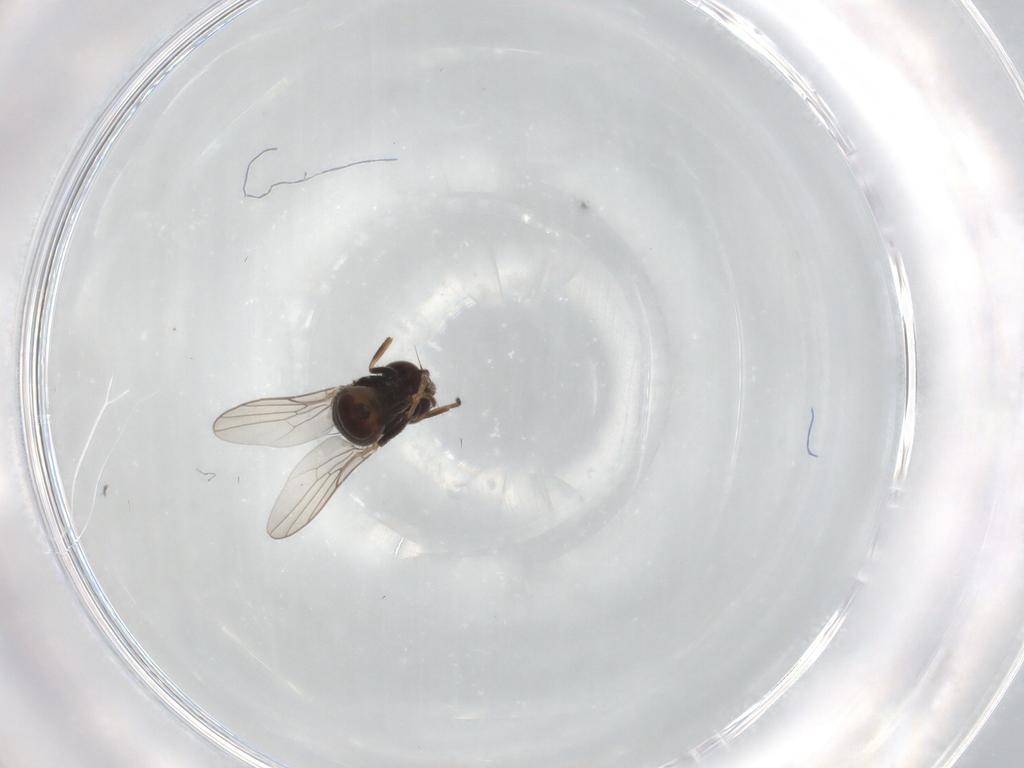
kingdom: Animalia
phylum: Arthropoda
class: Insecta
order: Diptera
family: Chloropidae
